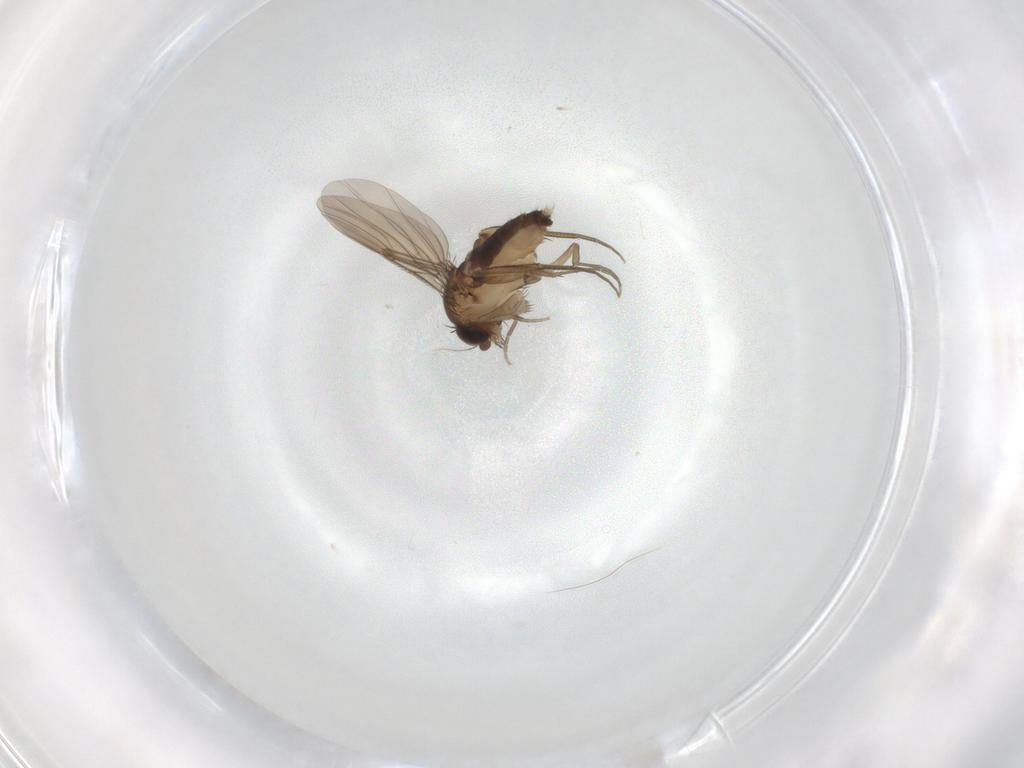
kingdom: Animalia
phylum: Arthropoda
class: Insecta
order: Diptera
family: Phoridae
